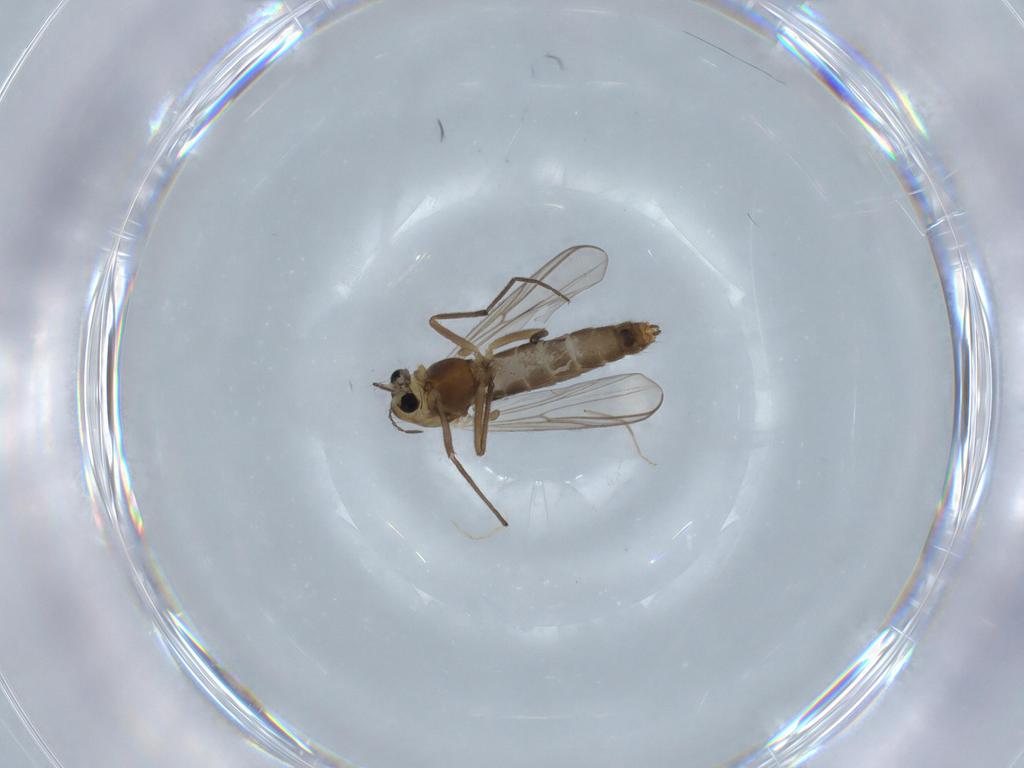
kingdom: Animalia
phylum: Arthropoda
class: Insecta
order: Diptera
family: Chironomidae
